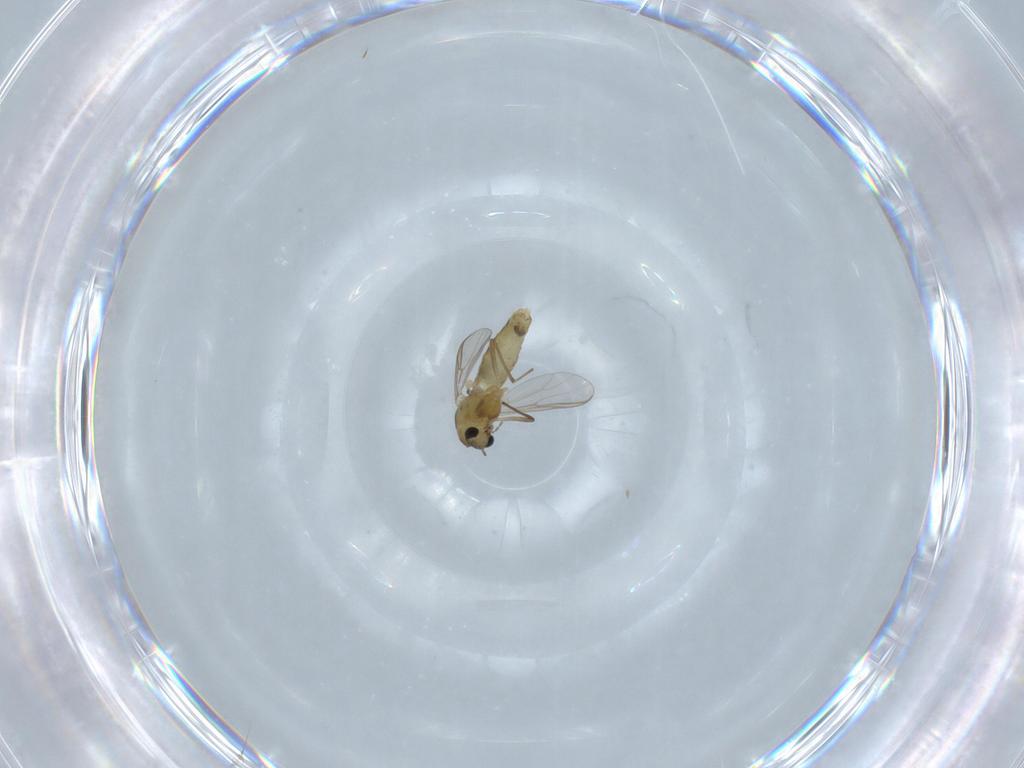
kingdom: Animalia
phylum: Arthropoda
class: Insecta
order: Diptera
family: Chironomidae
